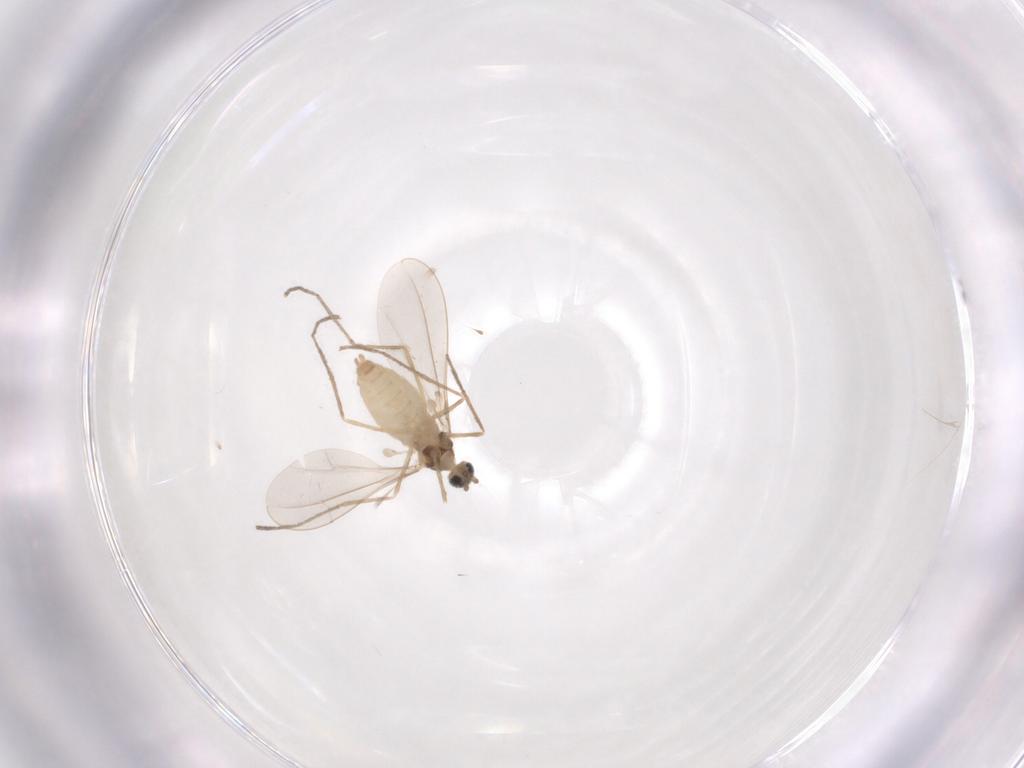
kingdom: Animalia
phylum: Arthropoda
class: Insecta
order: Diptera
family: Cecidomyiidae
